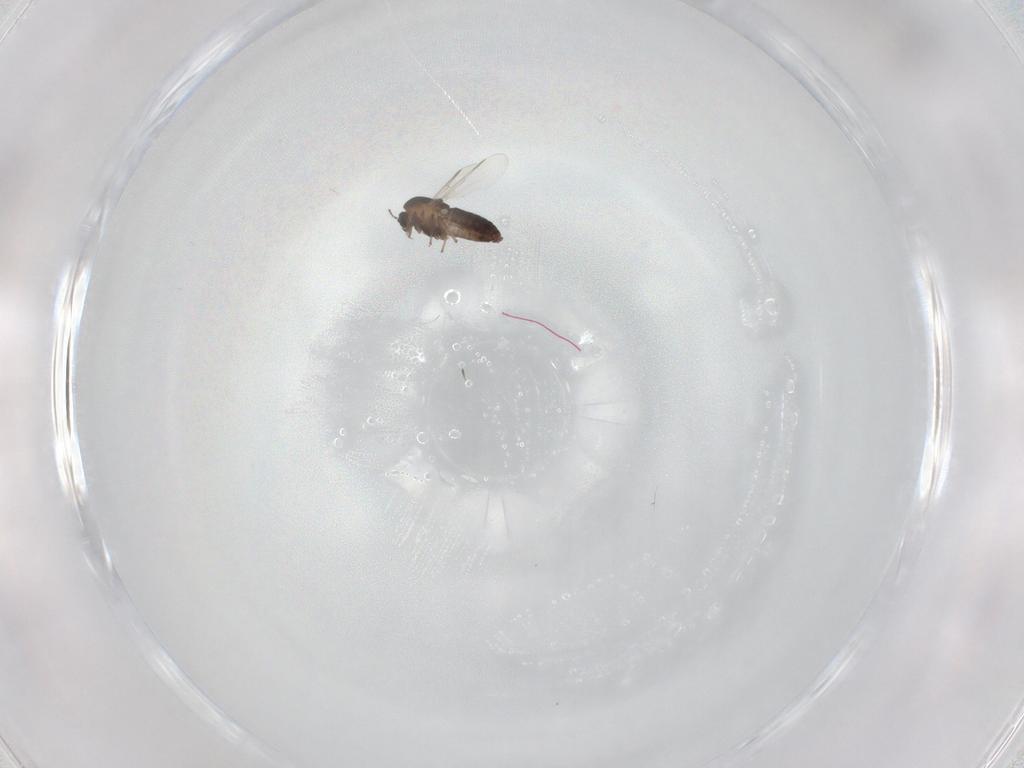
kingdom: Animalia
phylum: Arthropoda
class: Insecta
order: Diptera
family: Chironomidae
